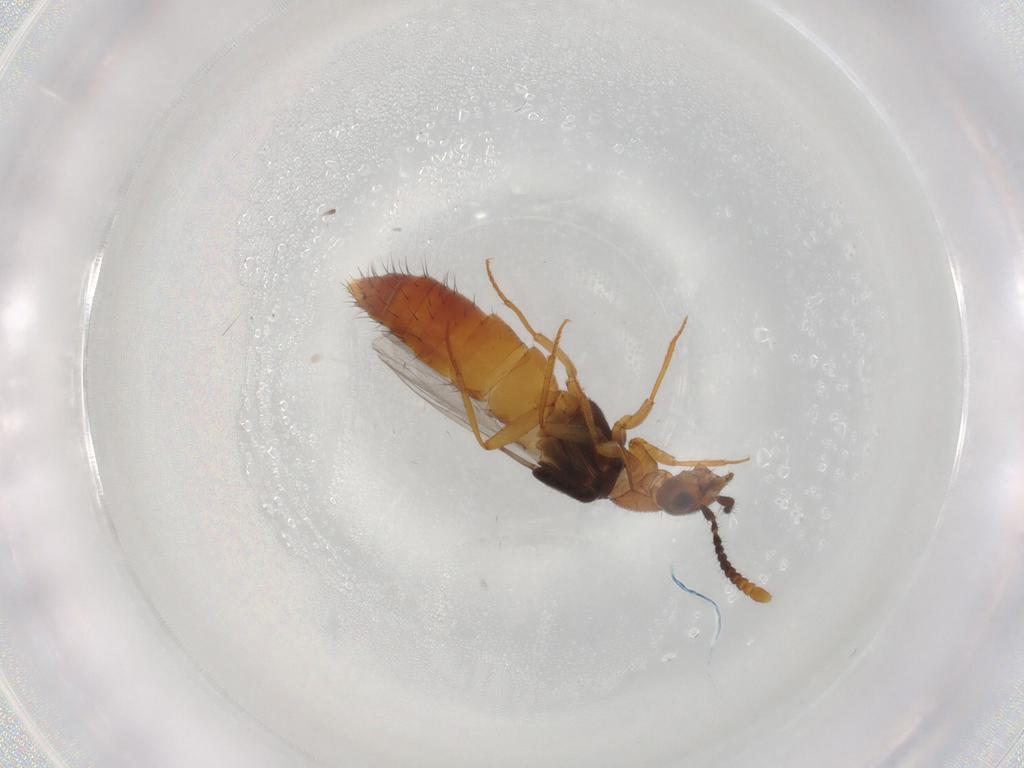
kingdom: Animalia
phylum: Arthropoda
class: Insecta
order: Coleoptera
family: Staphylinidae
